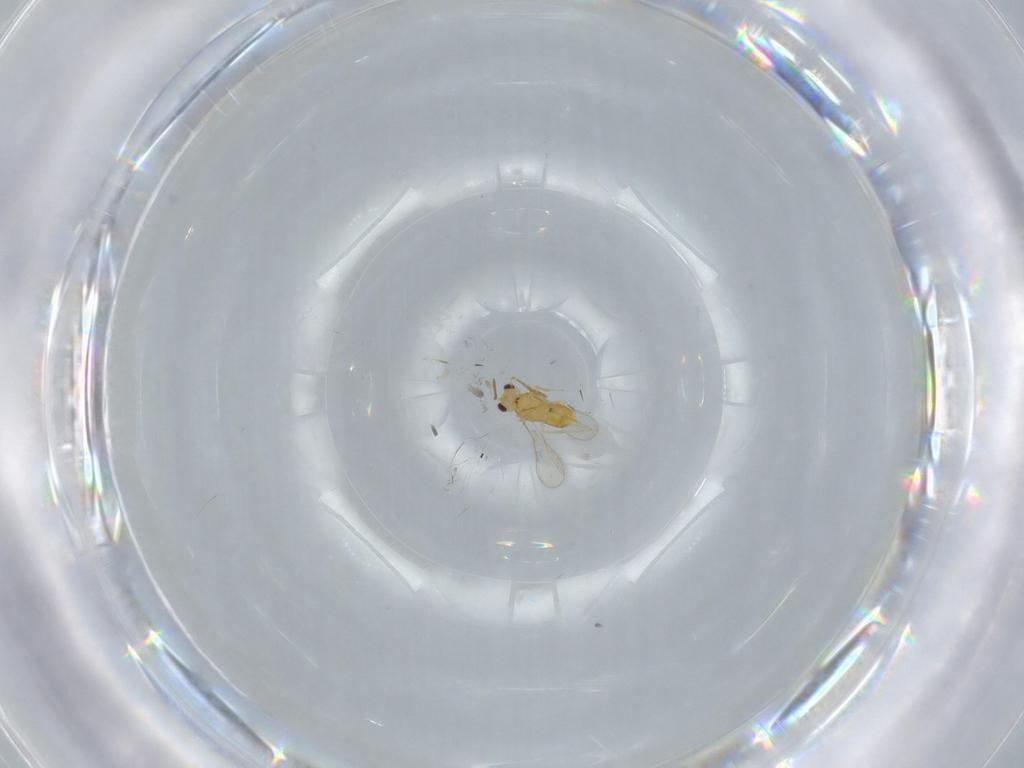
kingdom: Animalia
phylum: Arthropoda
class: Insecta
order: Hymenoptera
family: Aphelinidae
